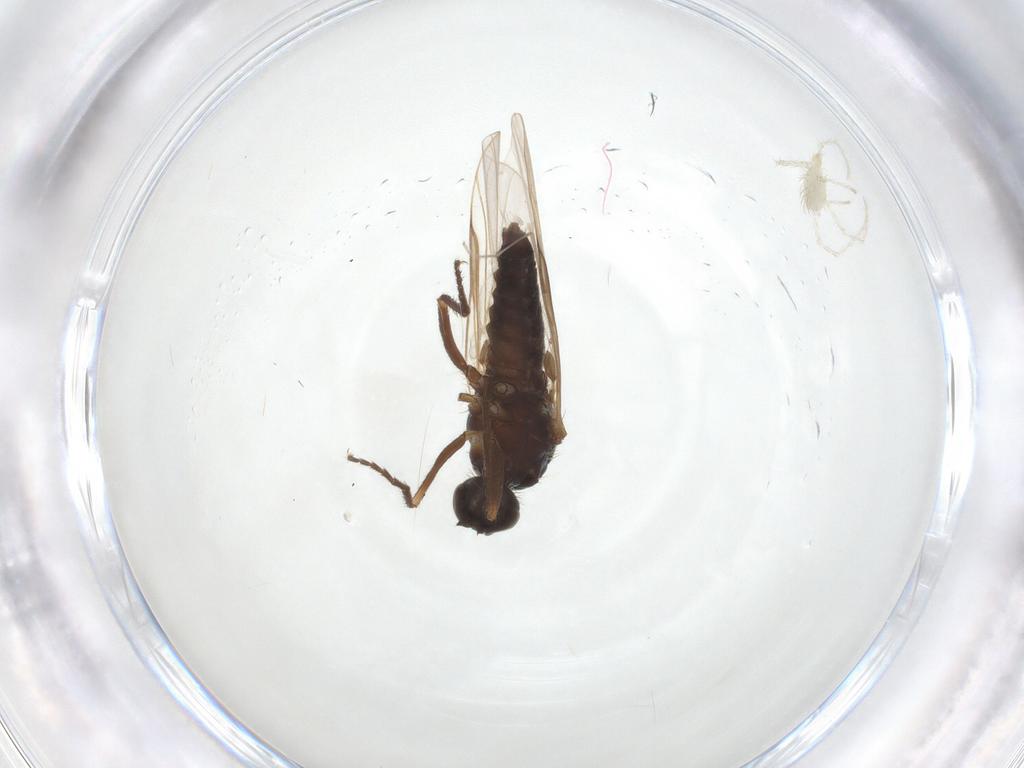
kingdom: Animalia
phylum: Arthropoda
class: Insecta
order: Diptera
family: Empididae
